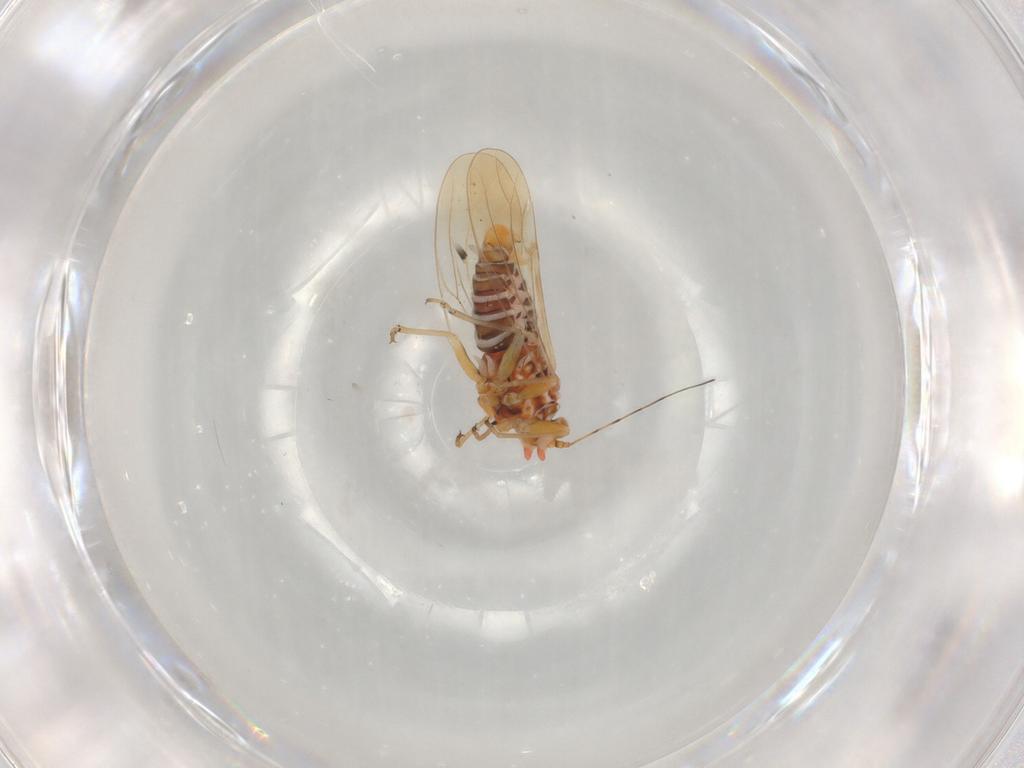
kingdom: Animalia
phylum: Arthropoda
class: Insecta
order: Hemiptera
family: Psyllidae
